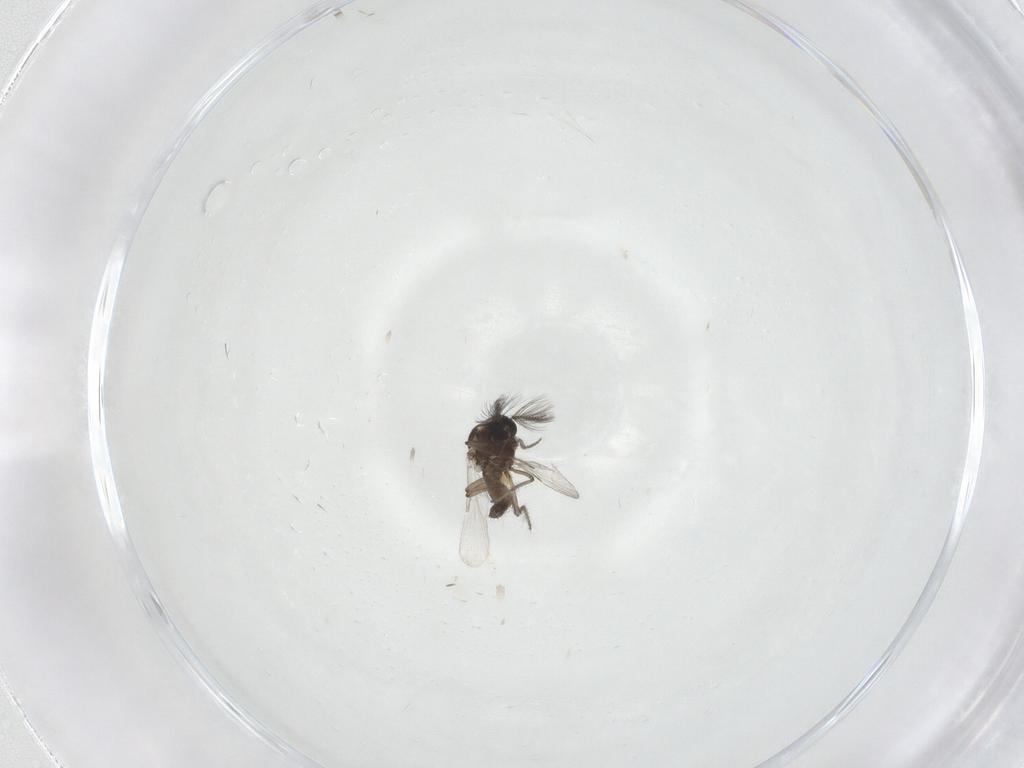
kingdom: Animalia
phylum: Arthropoda
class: Insecta
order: Diptera
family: Ceratopogonidae
